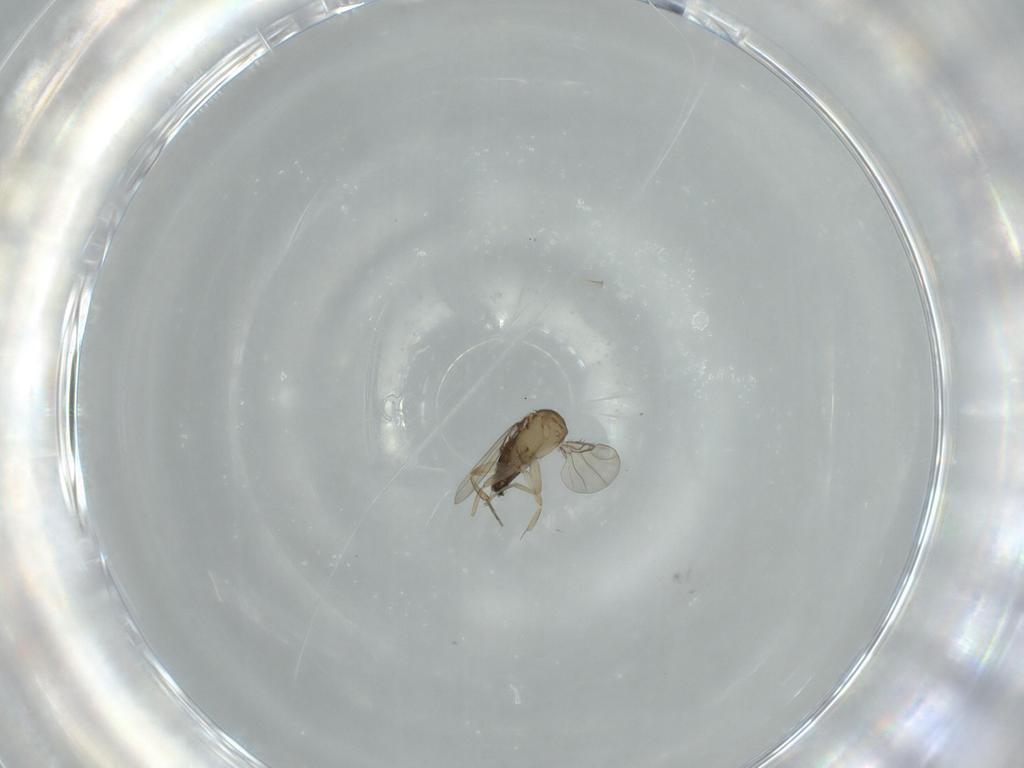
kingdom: Animalia
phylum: Arthropoda
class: Insecta
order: Diptera
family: Phoridae
